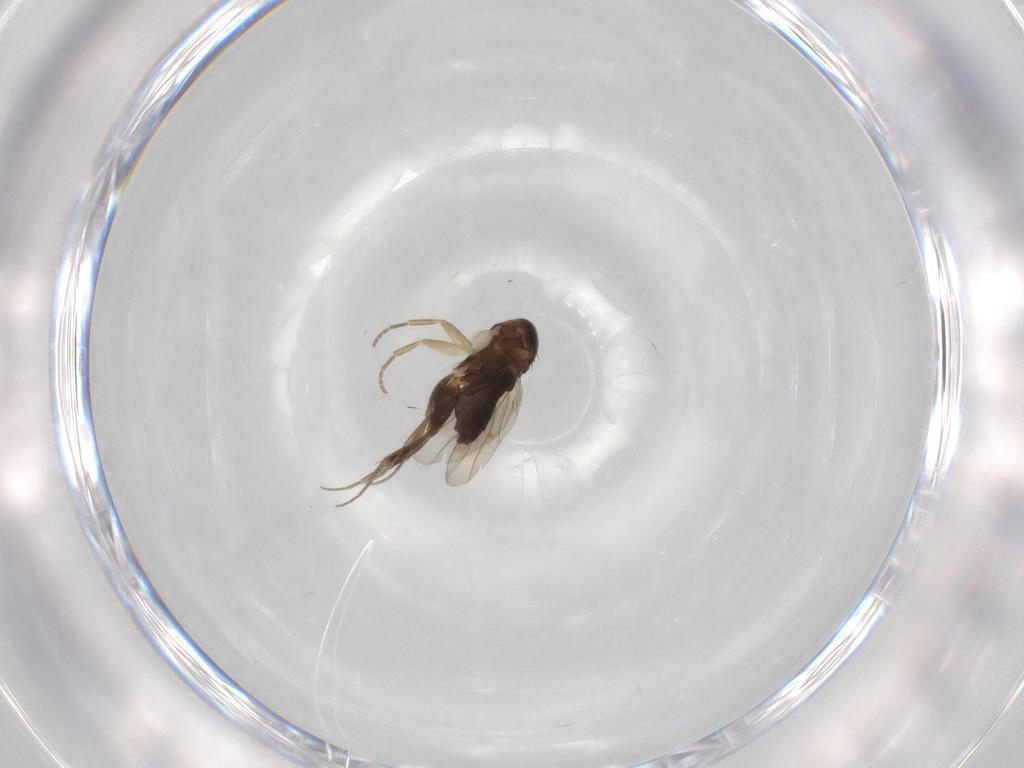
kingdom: Animalia
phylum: Arthropoda
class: Insecta
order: Diptera
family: Phoridae
